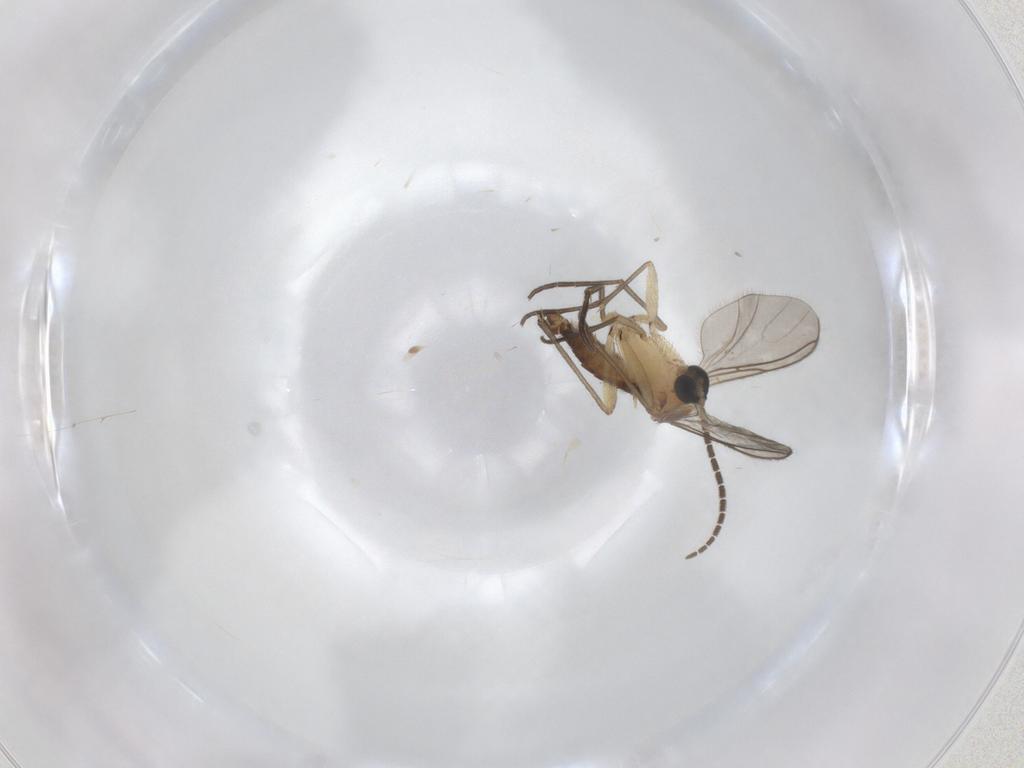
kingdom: Animalia
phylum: Arthropoda
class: Insecta
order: Diptera
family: Sciaridae
